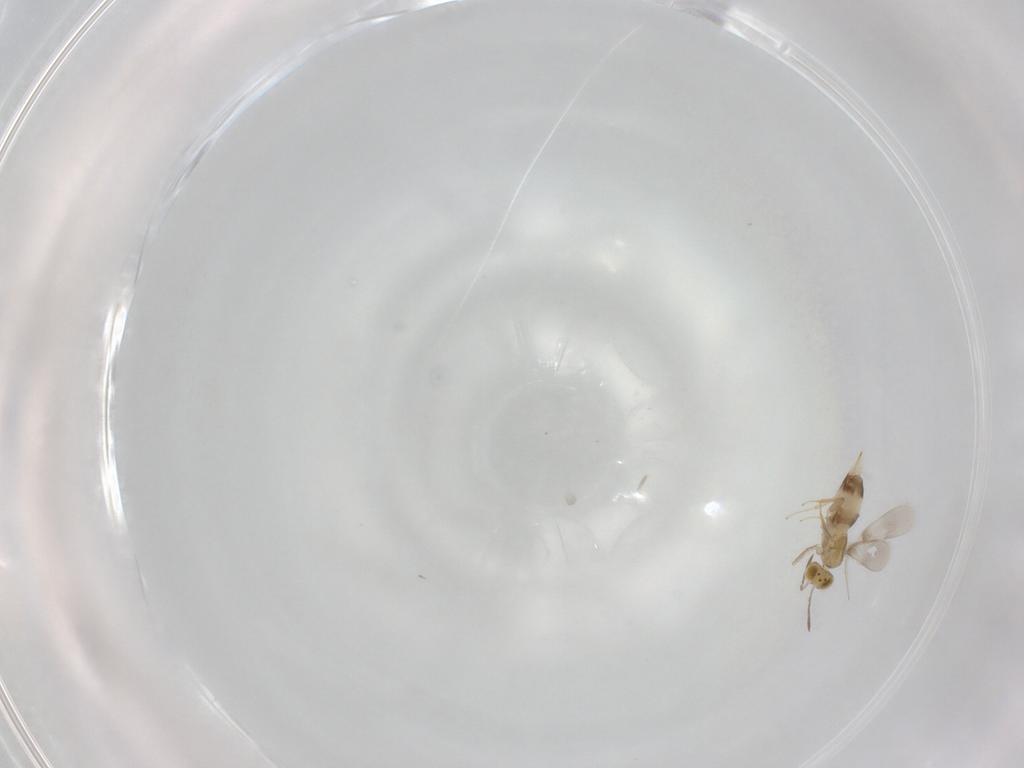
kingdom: Animalia
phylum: Arthropoda
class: Insecta
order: Hymenoptera
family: Aphelinidae
